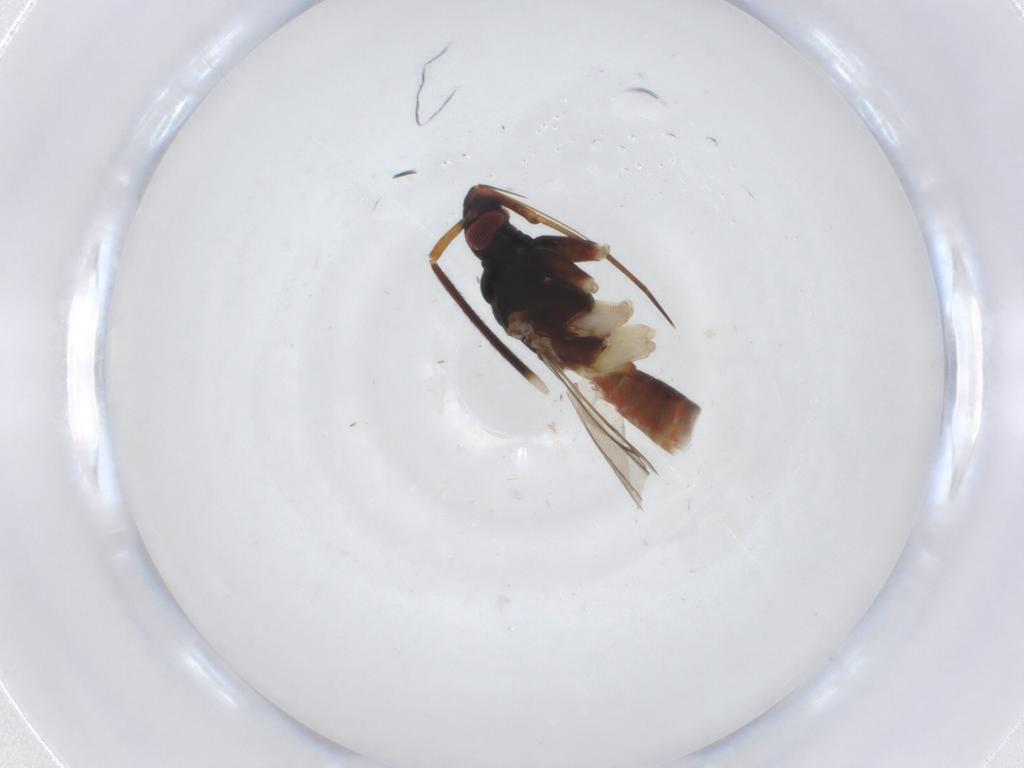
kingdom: Animalia
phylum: Arthropoda
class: Insecta
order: Hemiptera
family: Miridae
